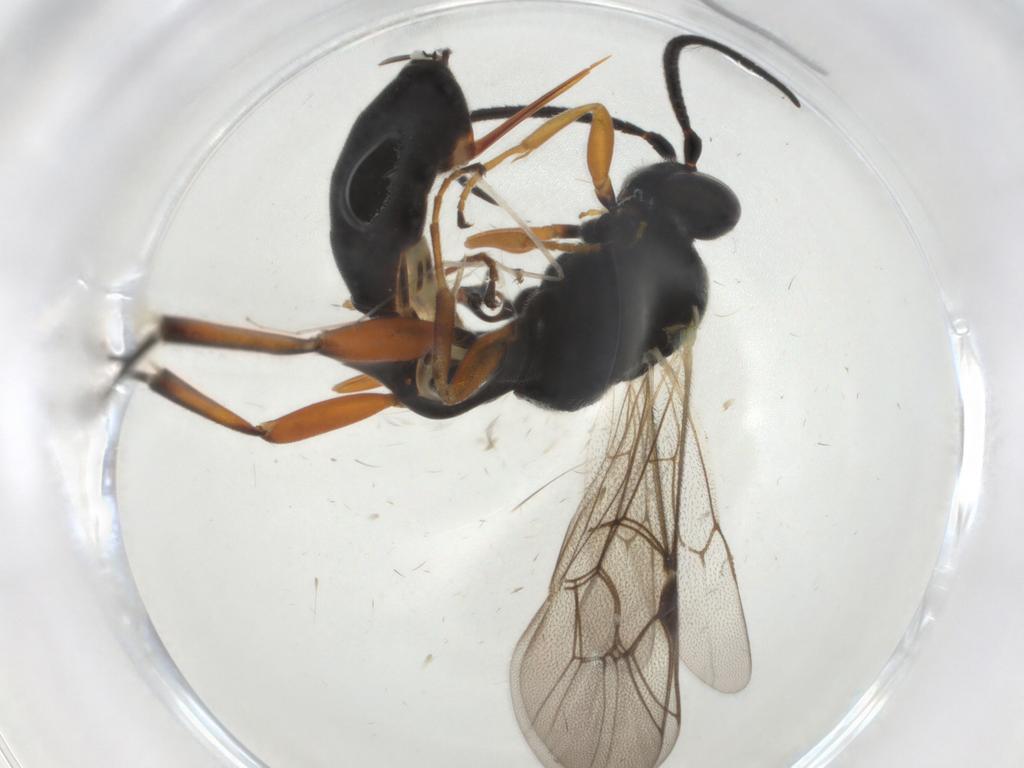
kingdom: Animalia
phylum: Arthropoda
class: Insecta
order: Hymenoptera
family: Ichneumonidae
